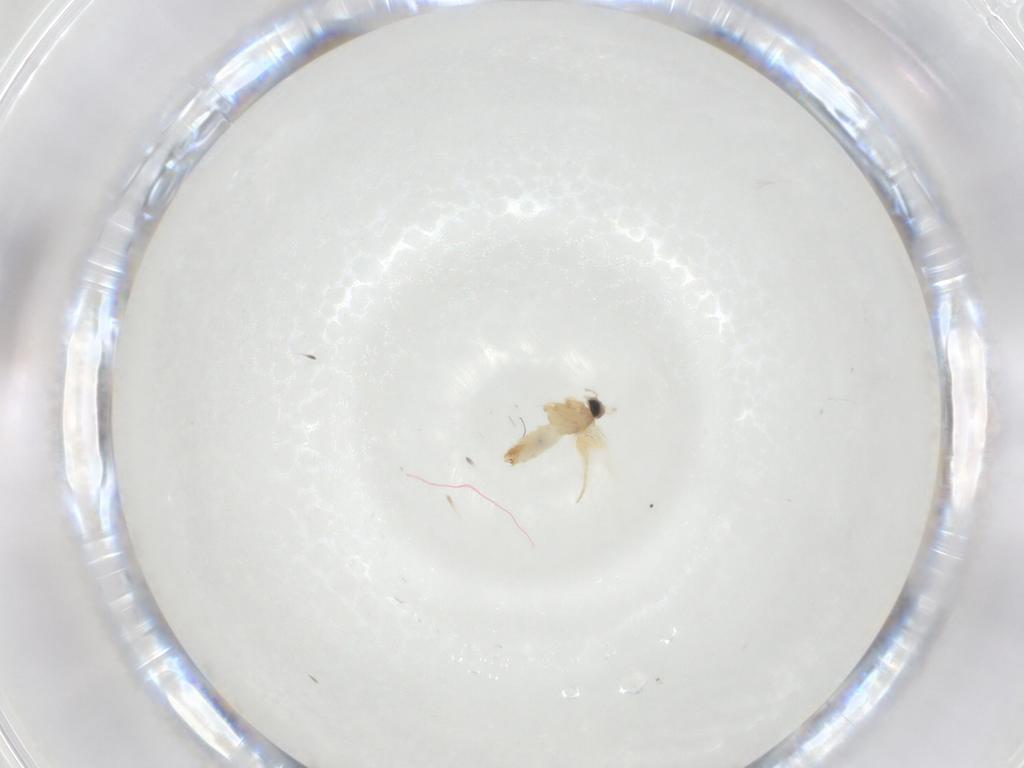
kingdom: Animalia
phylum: Arthropoda
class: Insecta
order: Lepidoptera
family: Crambidae
